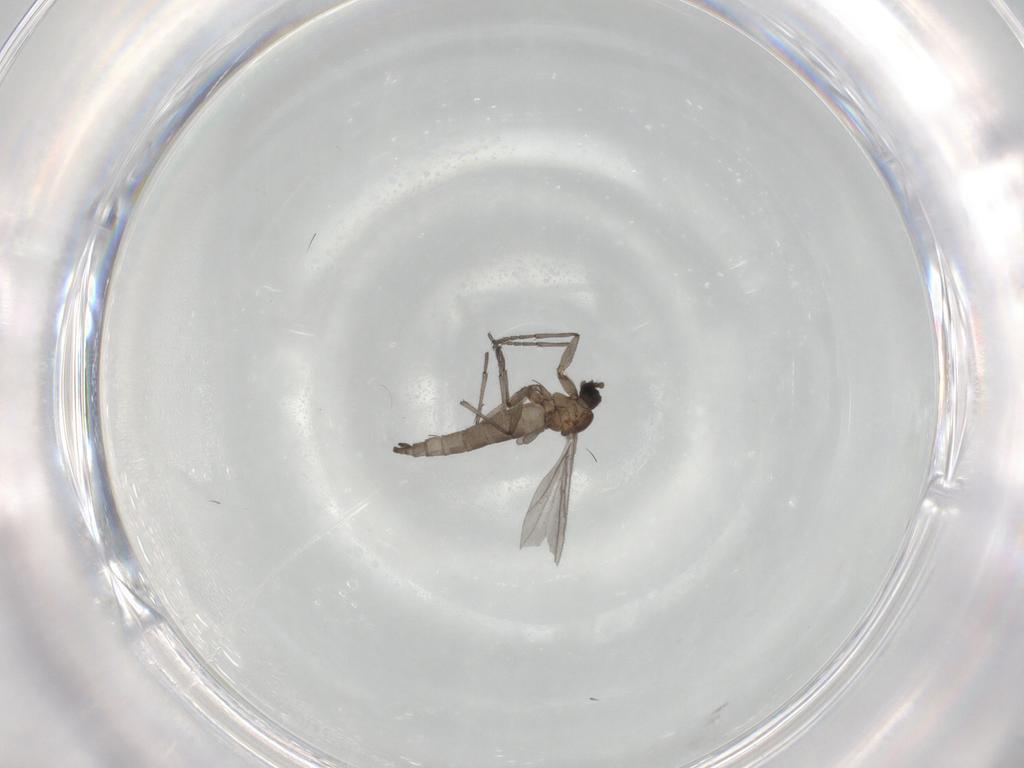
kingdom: Animalia
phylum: Arthropoda
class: Insecta
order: Diptera
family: Sciaridae
